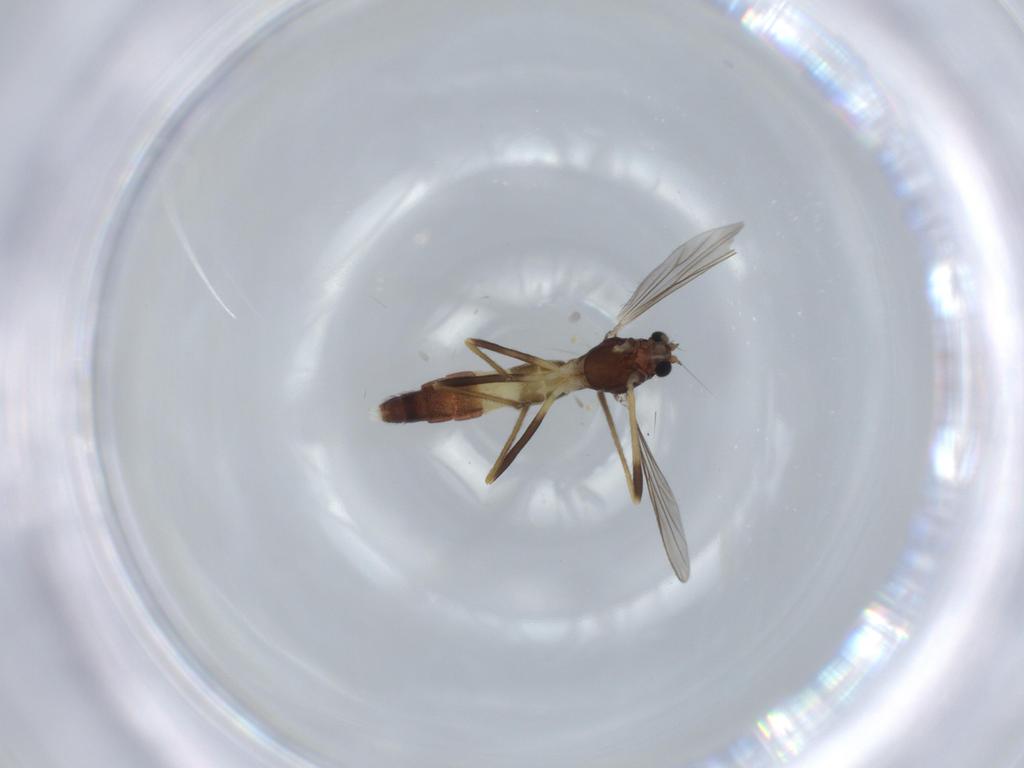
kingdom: Animalia
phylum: Arthropoda
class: Insecta
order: Diptera
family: Chironomidae
